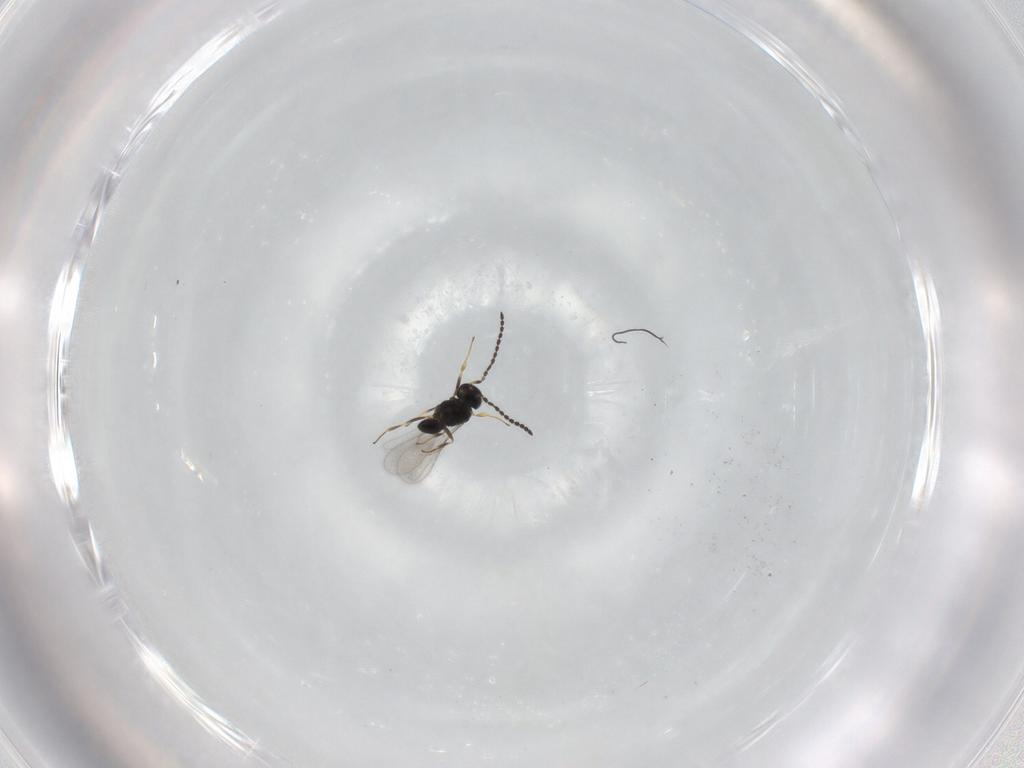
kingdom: Animalia
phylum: Arthropoda
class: Insecta
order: Hymenoptera
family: Scelionidae
